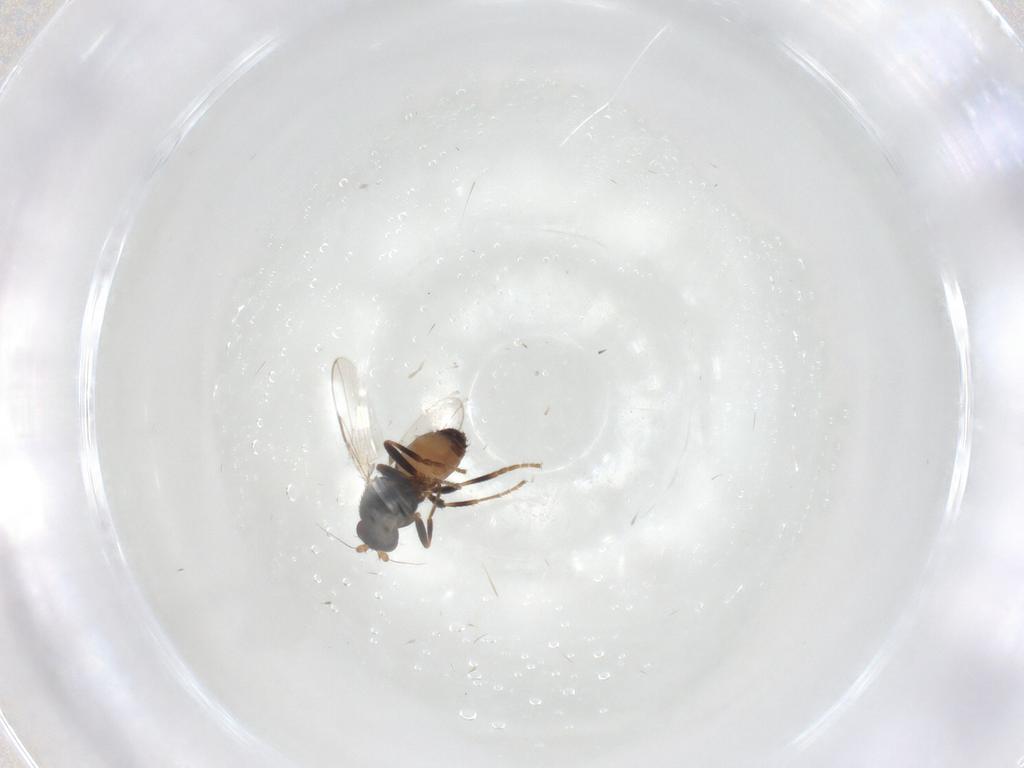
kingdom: Animalia
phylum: Arthropoda
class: Insecta
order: Diptera
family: Sphaeroceridae
